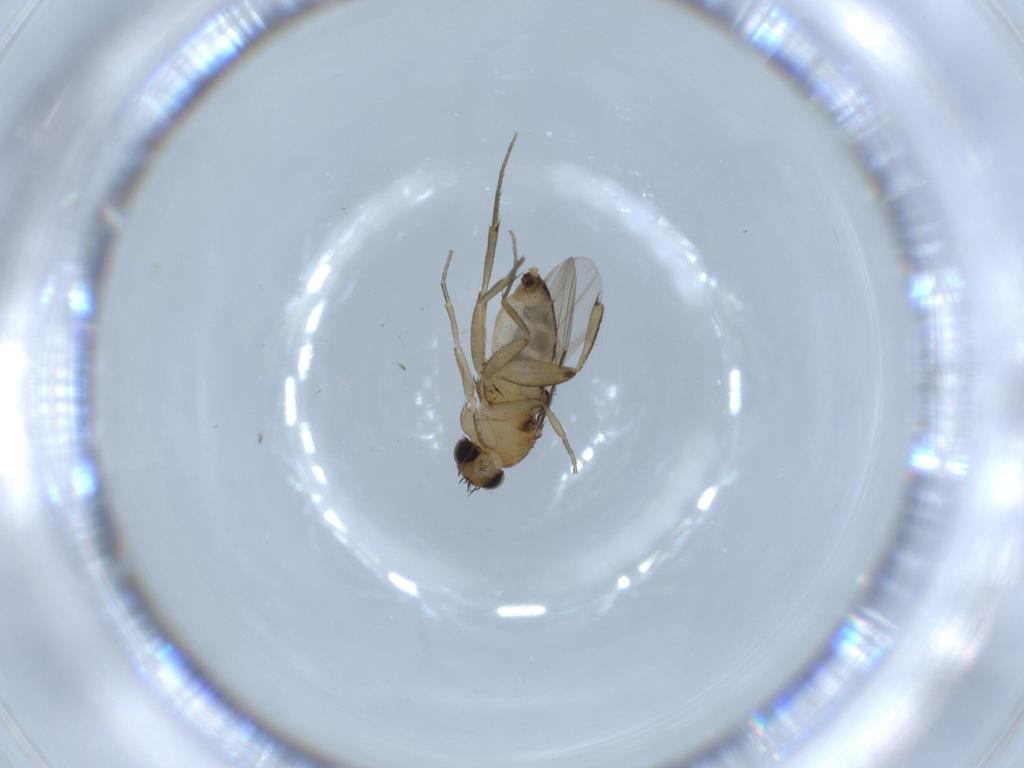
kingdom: Animalia
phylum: Arthropoda
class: Insecta
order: Diptera
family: Phoridae
